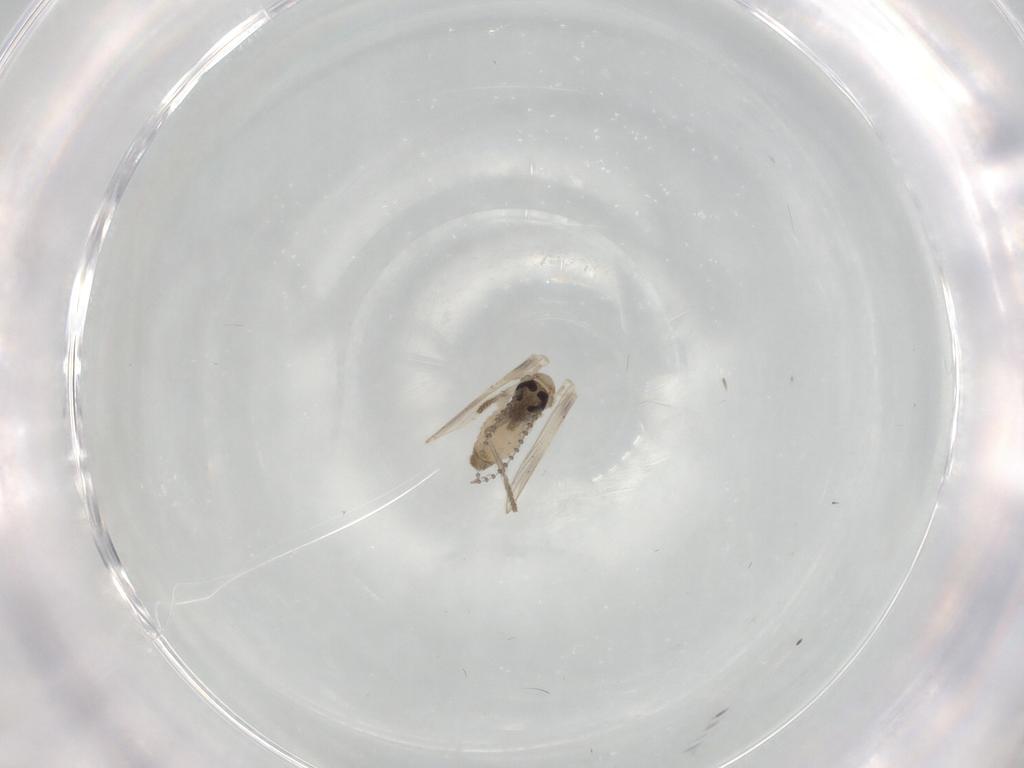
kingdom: Animalia
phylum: Arthropoda
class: Insecta
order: Diptera
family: Psychodidae
